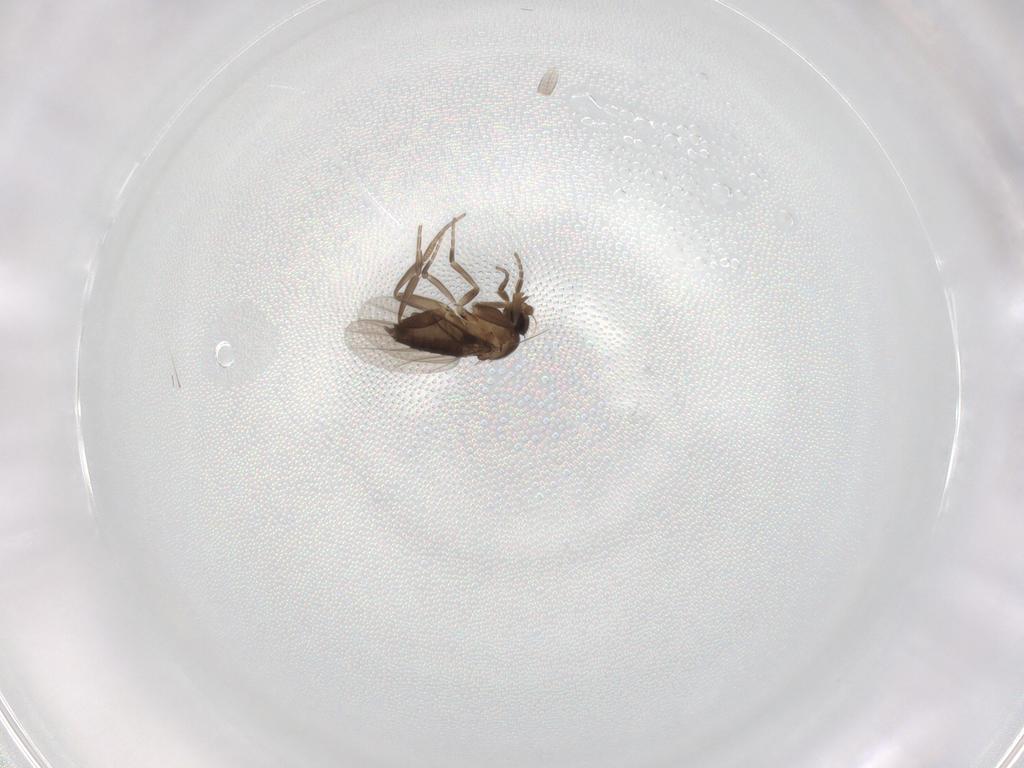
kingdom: Animalia
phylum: Arthropoda
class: Insecta
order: Diptera
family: Phoridae
